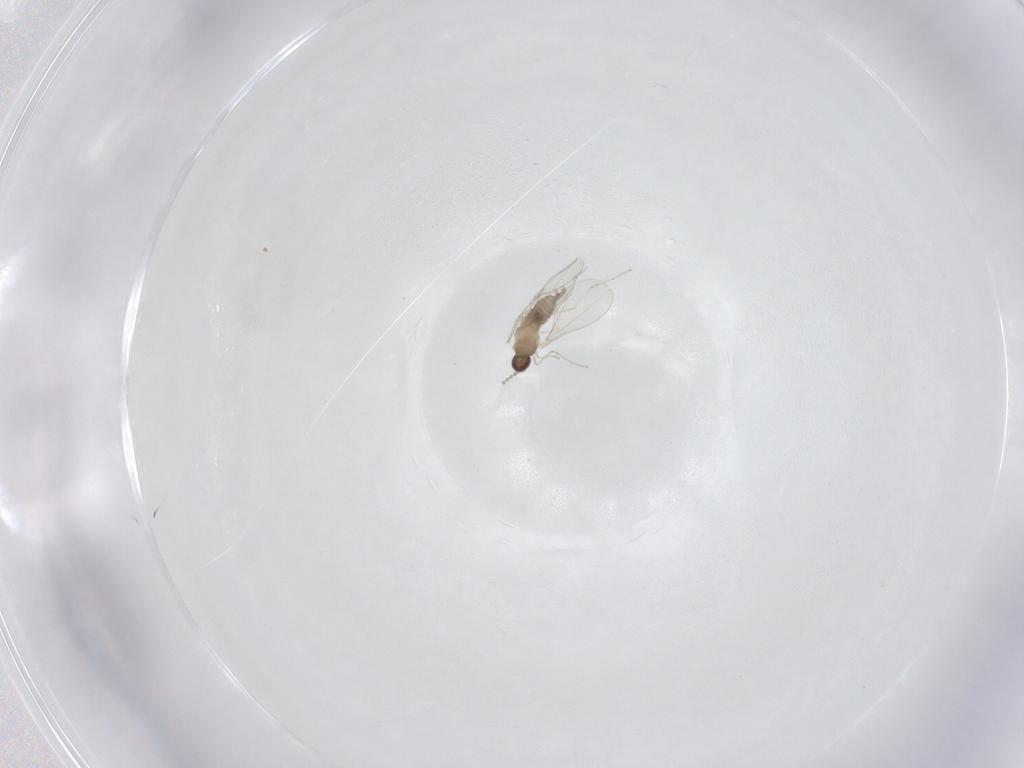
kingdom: Animalia
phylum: Arthropoda
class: Insecta
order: Diptera
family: Cecidomyiidae
